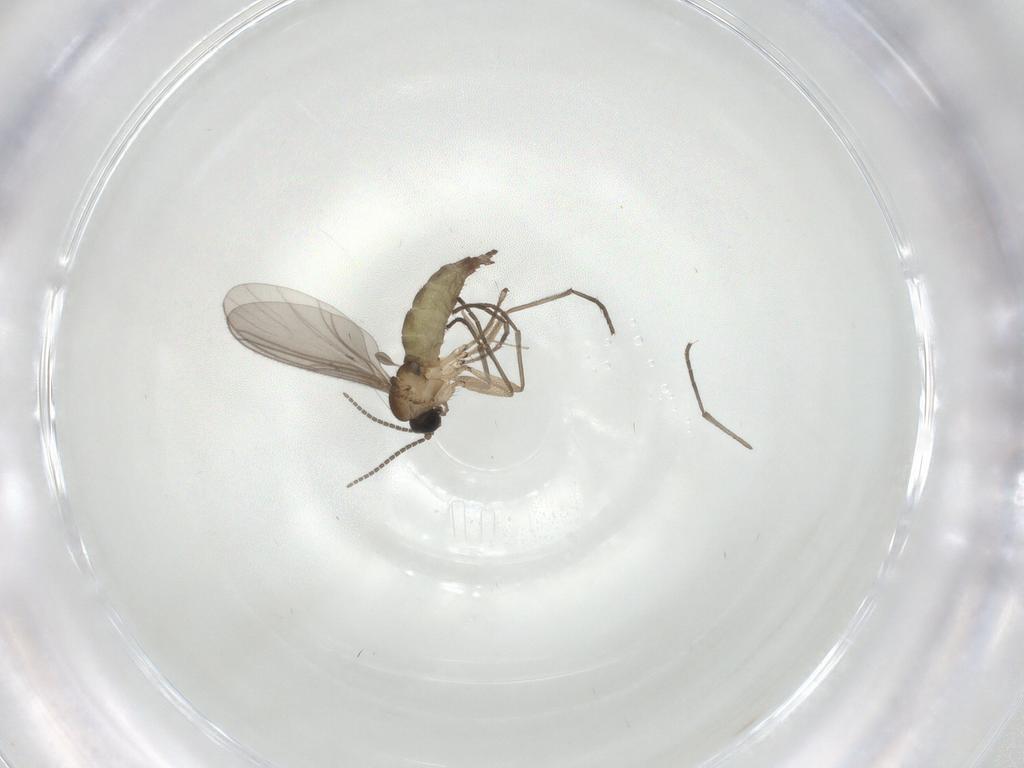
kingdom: Animalia
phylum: Arthropoda
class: Insecta
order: Diptera
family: Sciaridae
